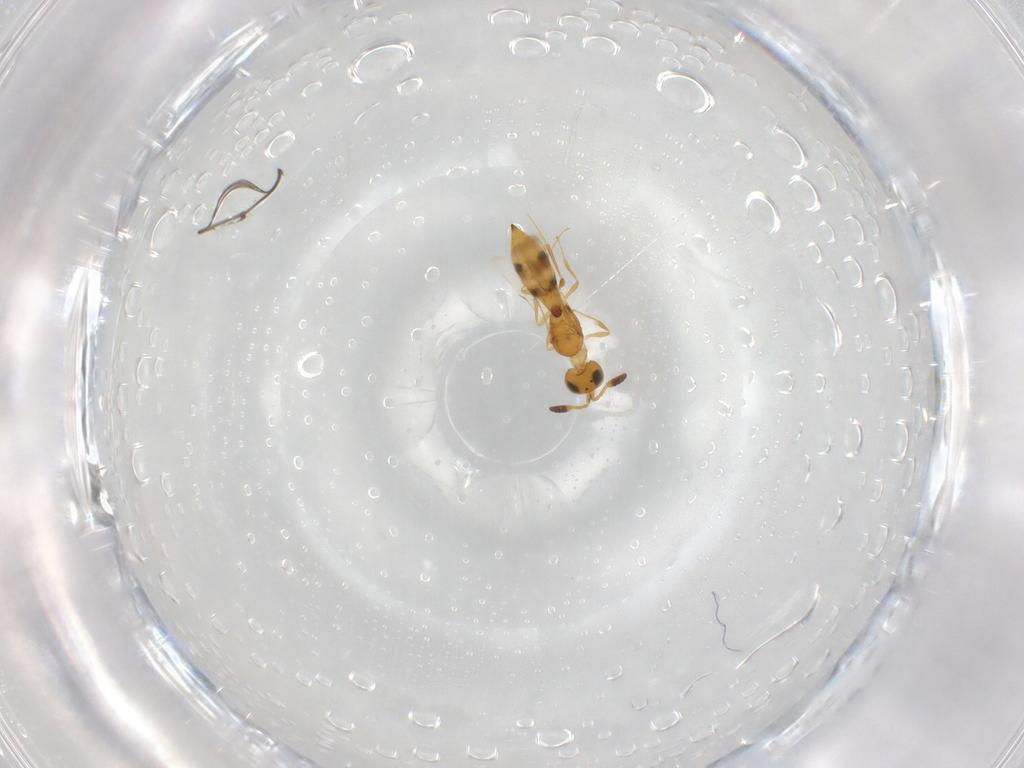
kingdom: Animalia
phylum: Arthropoda
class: Insecta
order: Hymenoptera
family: Braconidae
